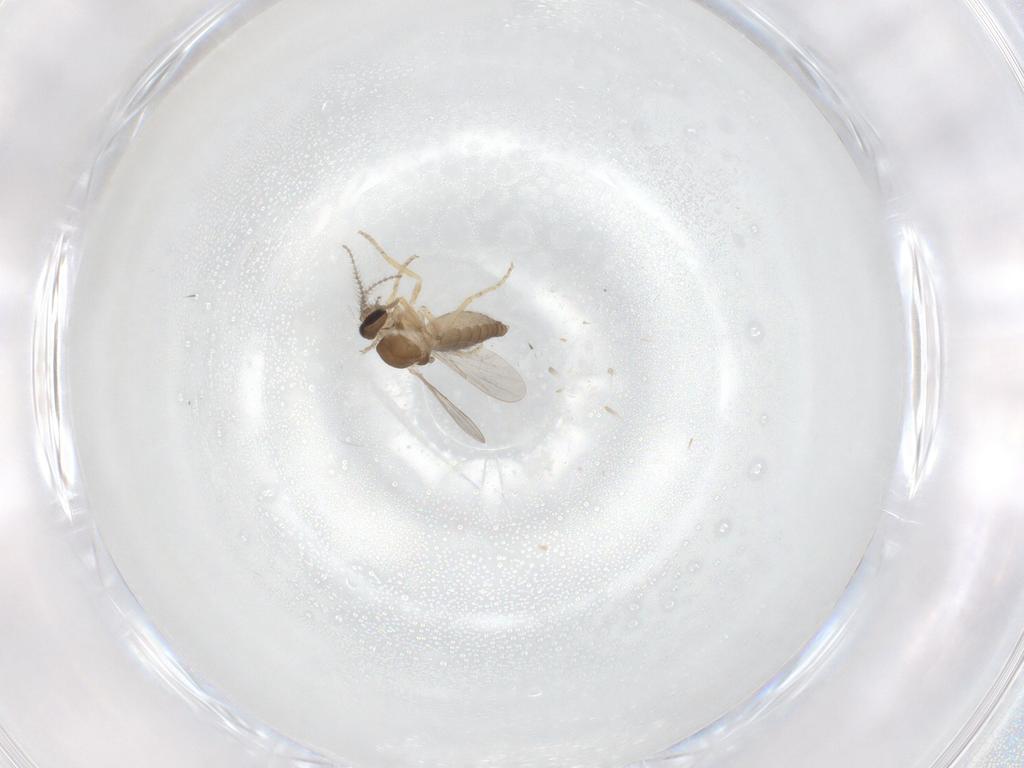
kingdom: Animalia
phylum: Arthropoda
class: Insecta
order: Diptera
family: Ceratopogonidae
